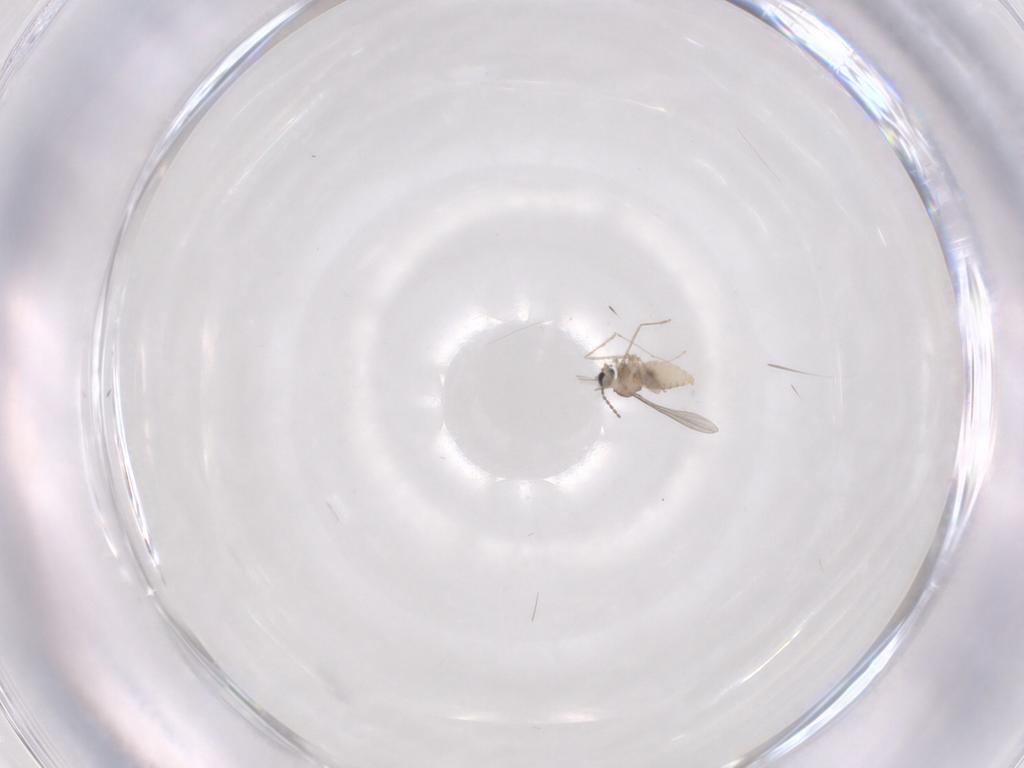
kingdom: Animalia
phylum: Arthropoda
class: Insecta
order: Diptera
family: Cecidomyiidae
